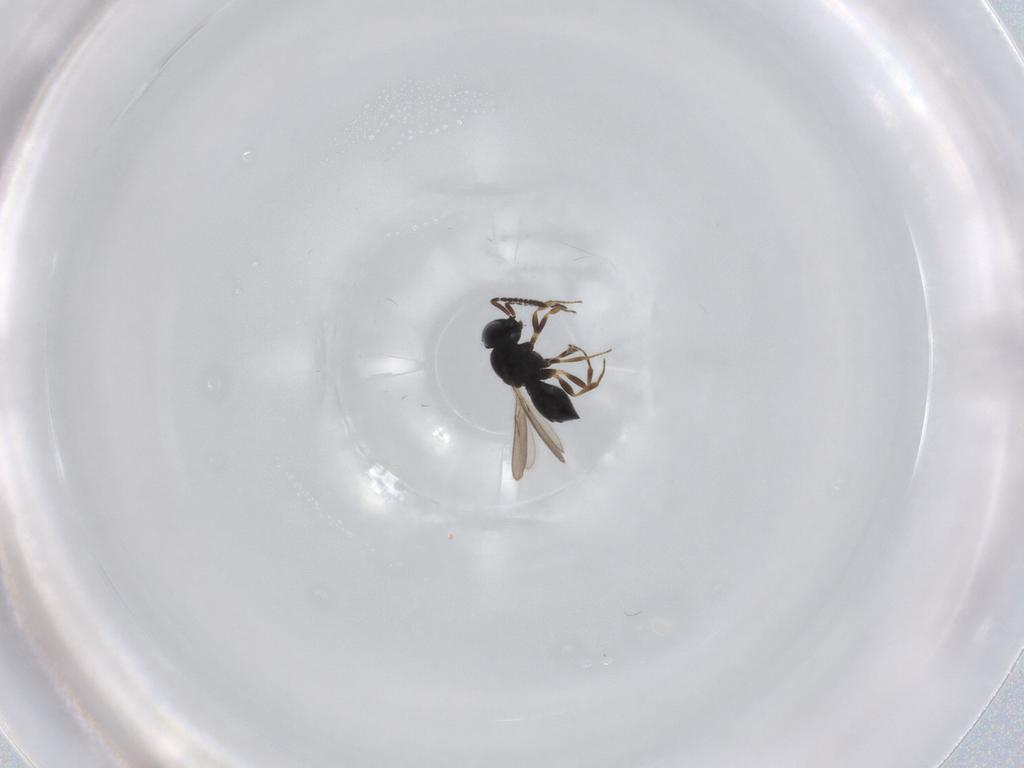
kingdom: Animalia
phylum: Arthropoda
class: Insecta
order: Hymenoptera
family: Scelionidae
